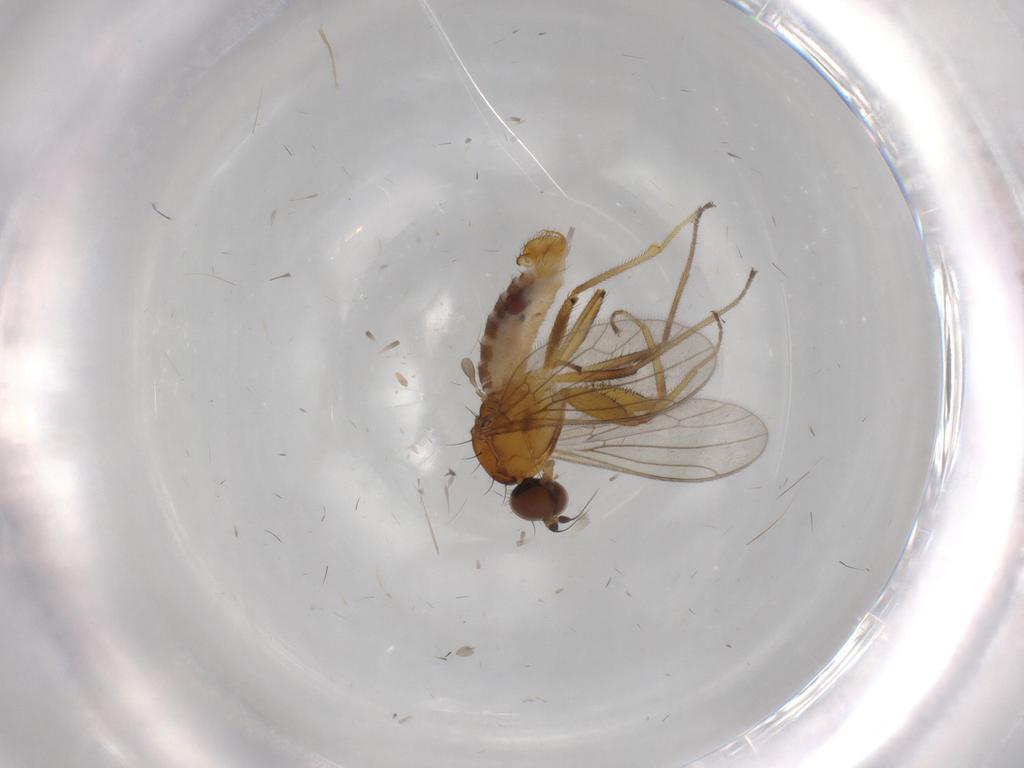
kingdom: Animalia
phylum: Arthropoda
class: Insecta
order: Diptera
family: Empididae
